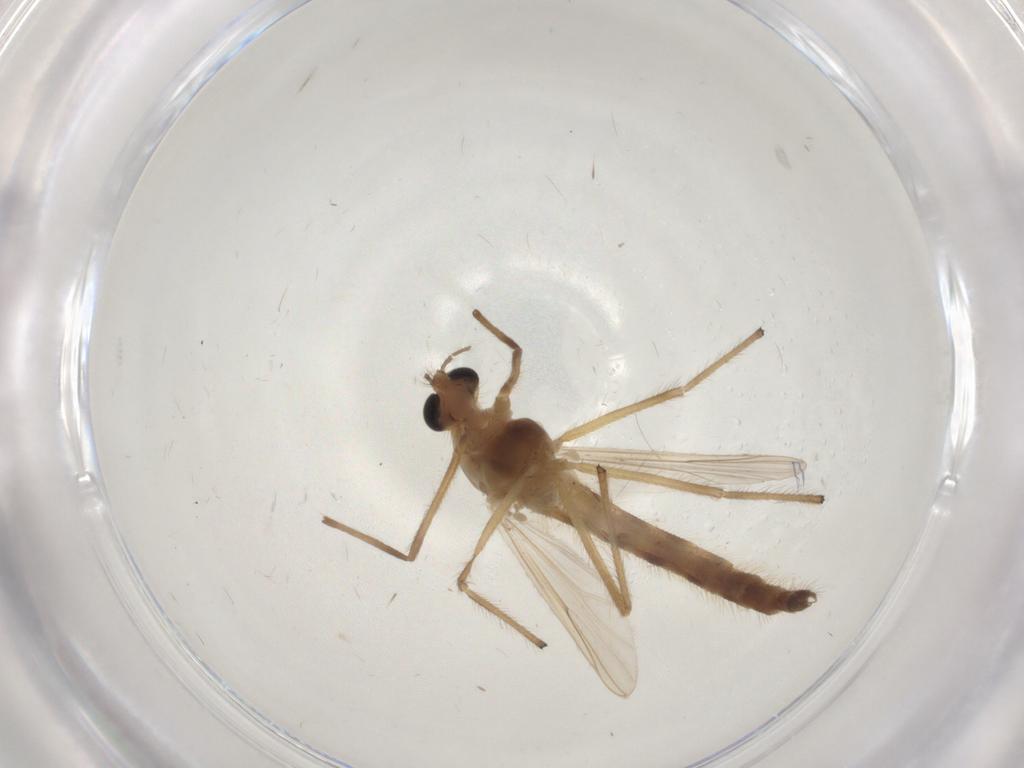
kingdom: Animalia
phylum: Arthropoda
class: Insecta
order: Diptera
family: Chironomidae
